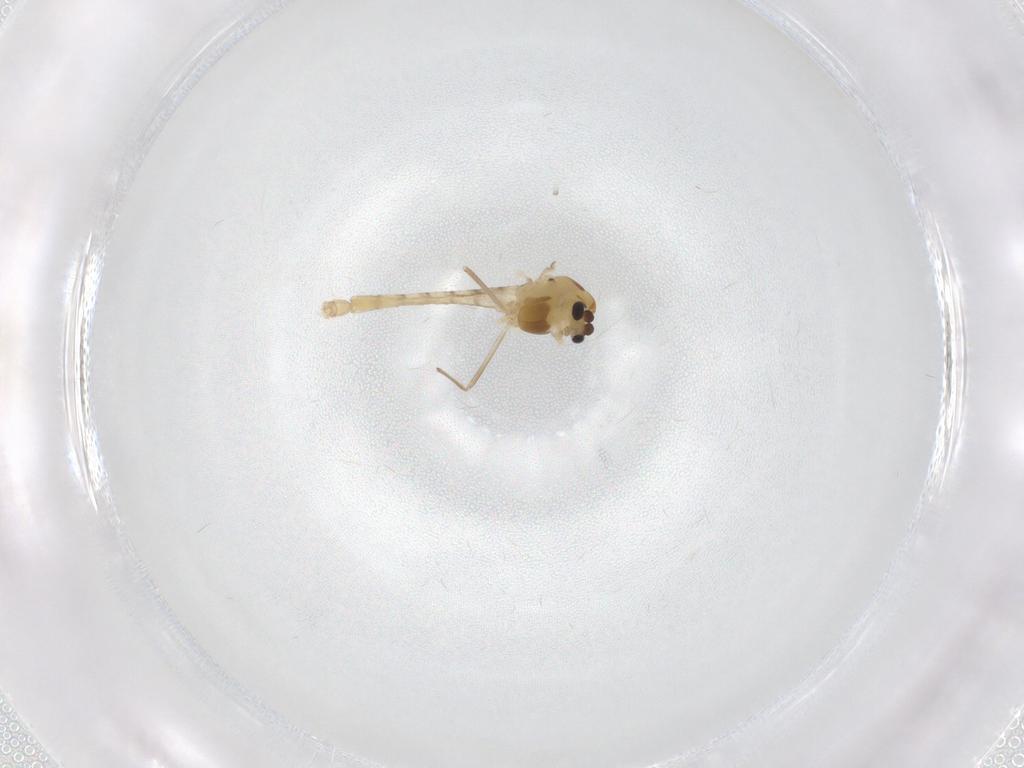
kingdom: Animalia
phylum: Arthropoda
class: Insecta
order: Diptera
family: Chironomidae
